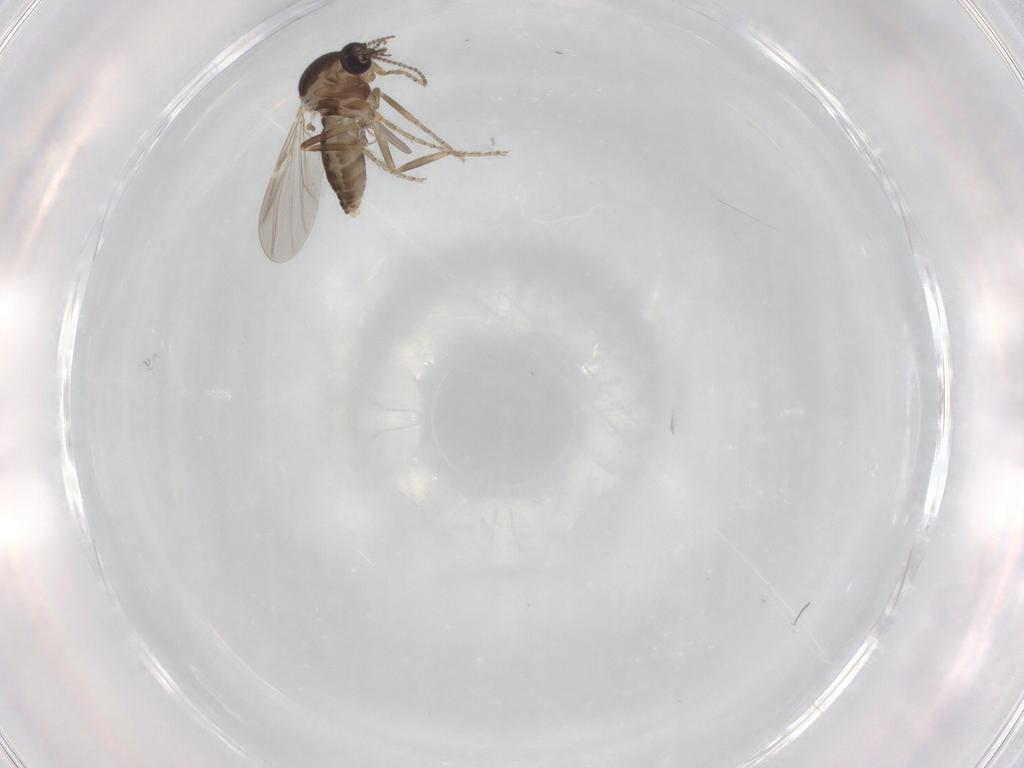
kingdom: Animalia
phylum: Arthropoda
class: Insecta
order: Diptera
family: Ceratopogonidae
